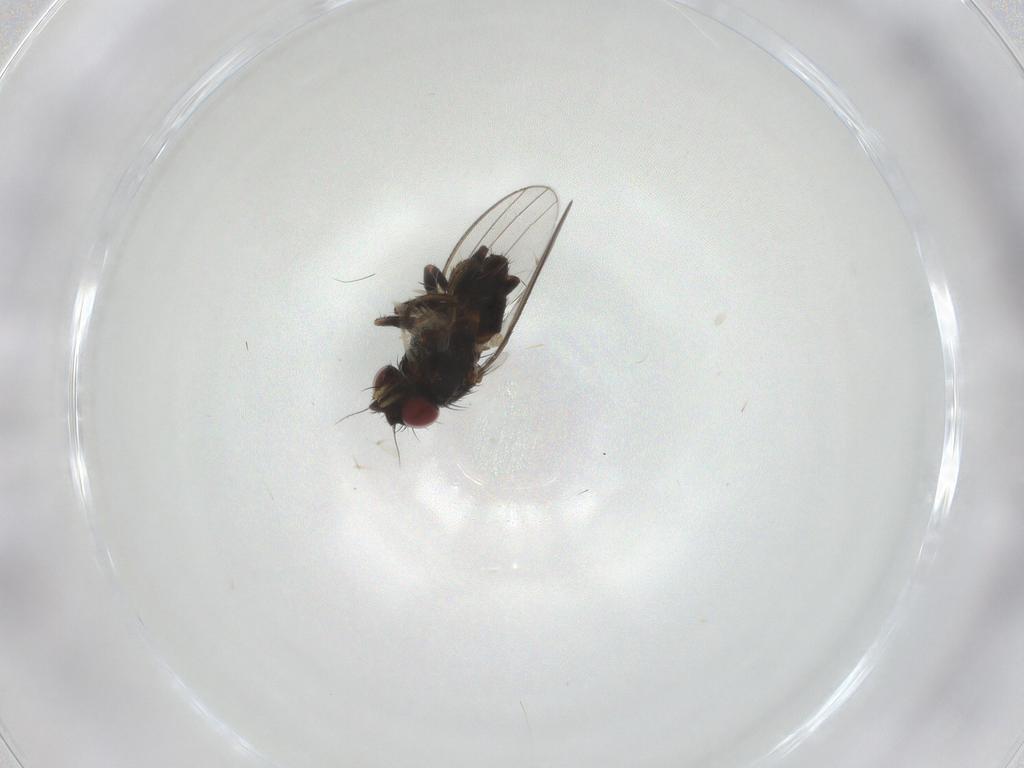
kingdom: Animalia
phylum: Arthropoda
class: Insecta
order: Diptera
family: Milichiidae
